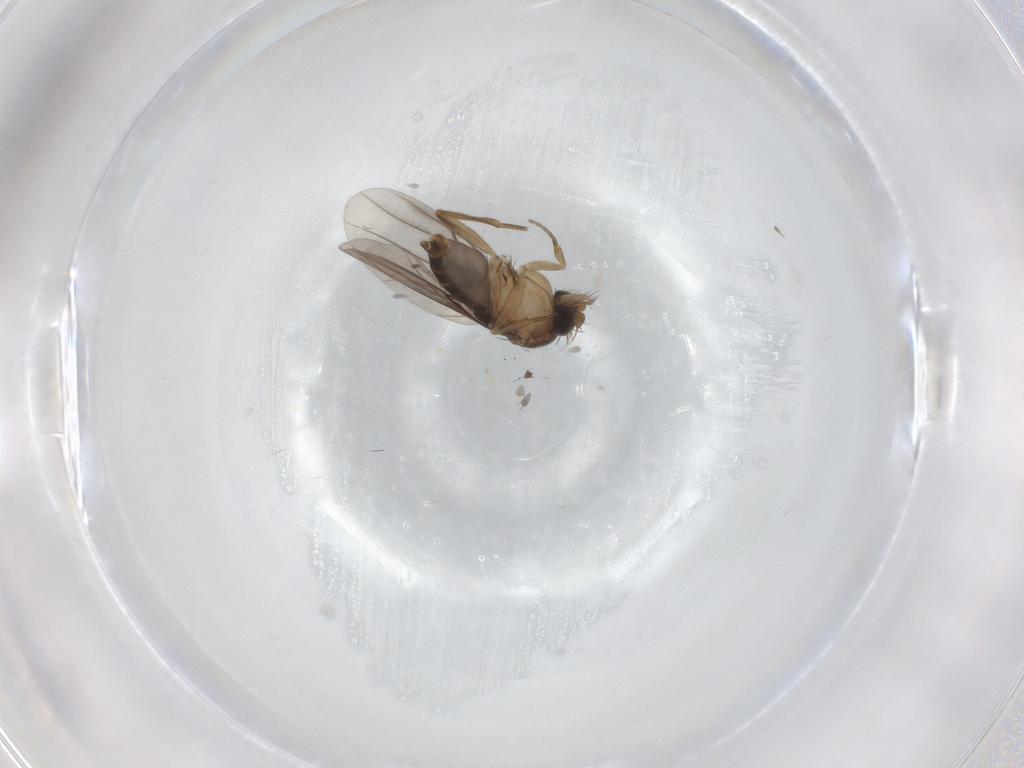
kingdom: Animalia
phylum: Arthropoda
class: Insecta
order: Diptera
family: Phoridae
